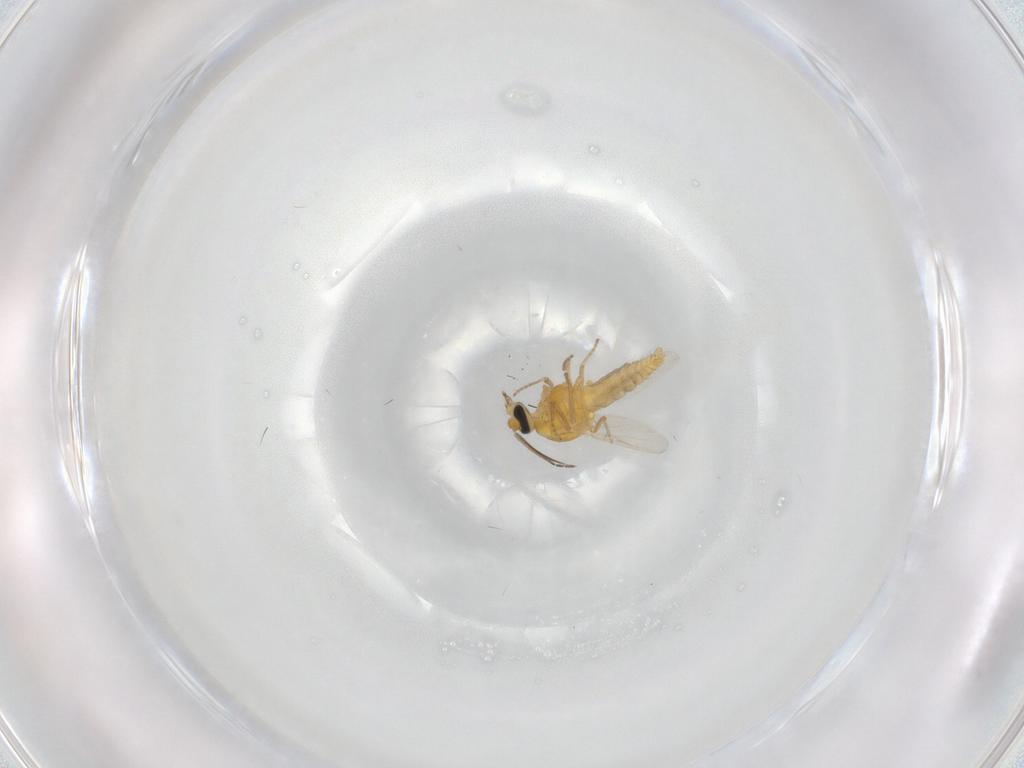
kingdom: Animalia
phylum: Arthropoda
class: Insecta
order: Diptera
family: Ceratopogonidae
